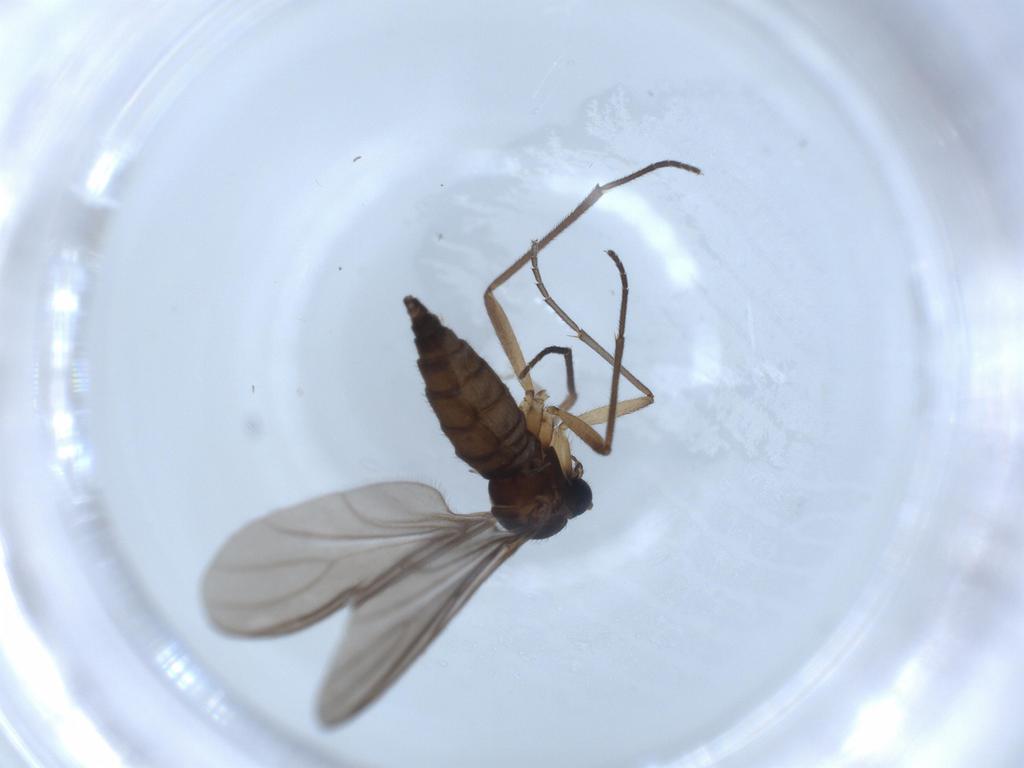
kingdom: Animalia
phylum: Arthropoda
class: Insecta
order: Diptera
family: Sciaridae
